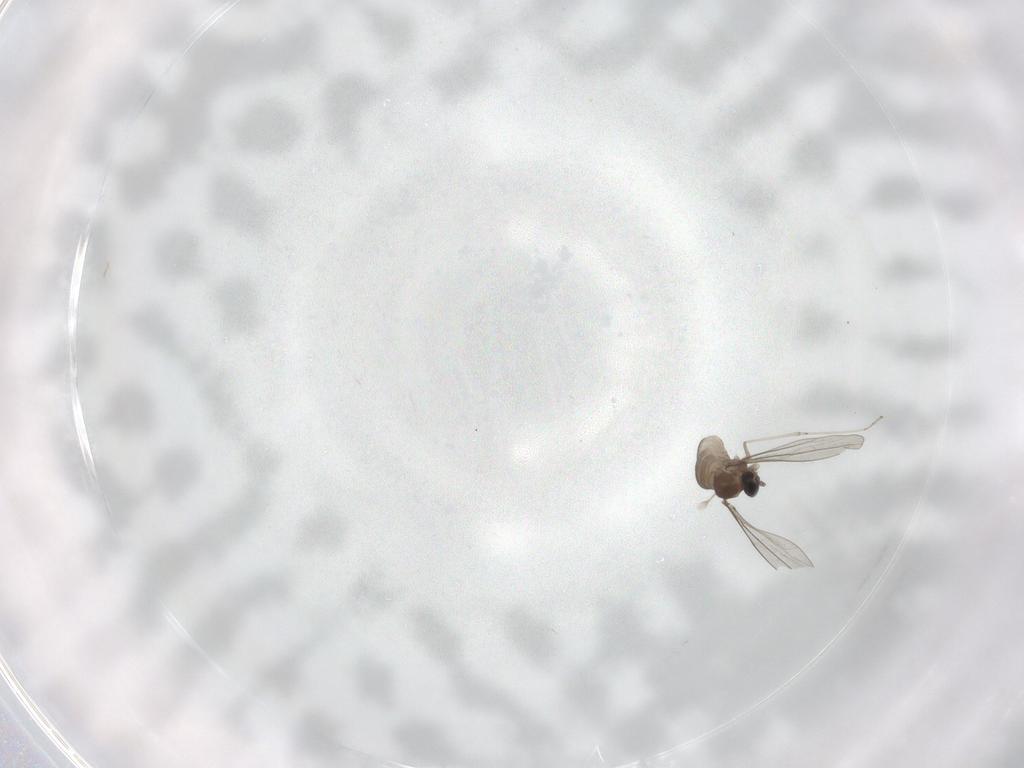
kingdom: Animalia
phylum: Arthropoda
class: Insecta
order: Diptera
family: Cecidomyiidae
